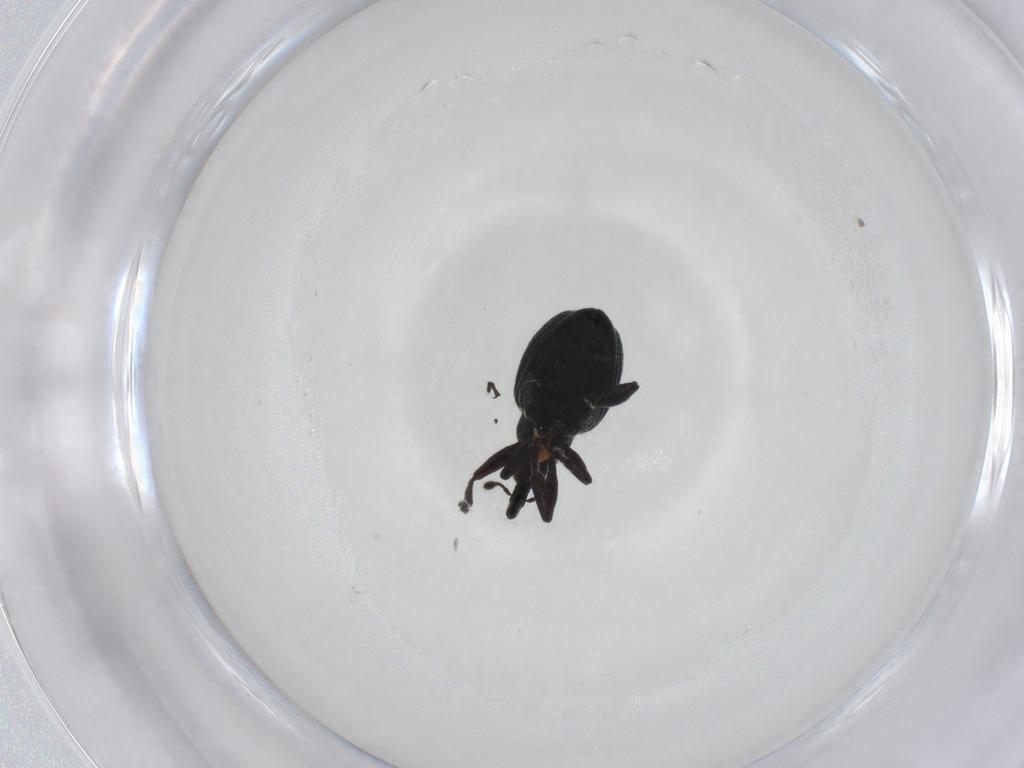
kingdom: Animalia
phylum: Arthropoda
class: Insecta
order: Coleoptera
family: Brentidae
